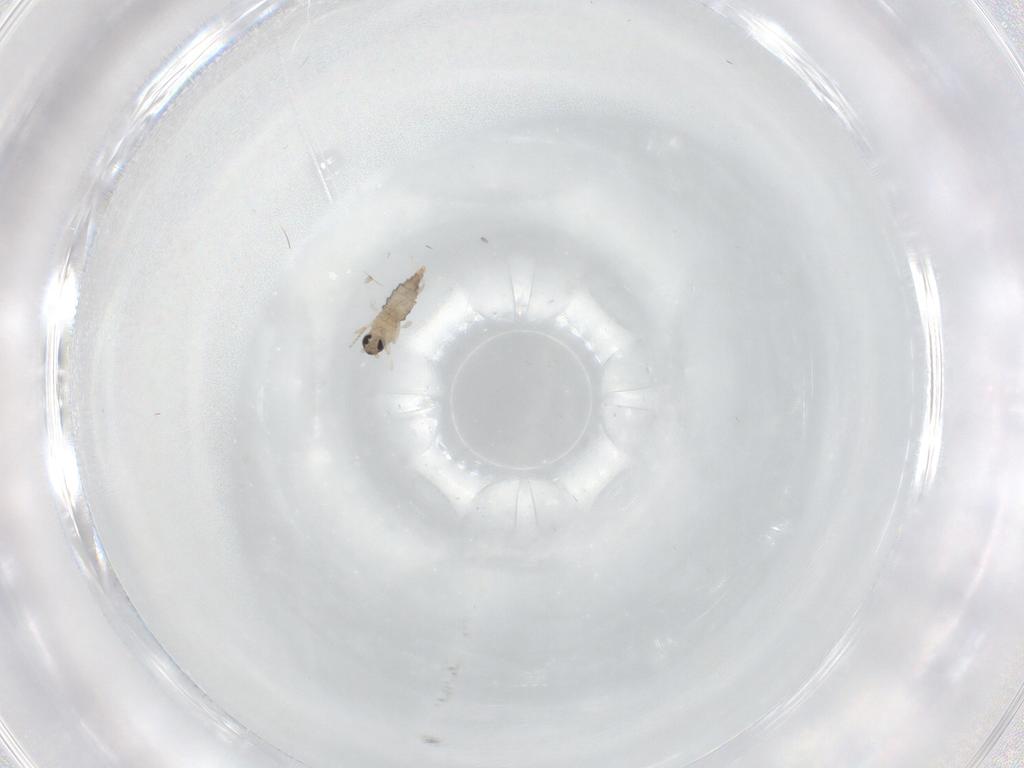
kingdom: Animalia
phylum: Arthropoda
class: Insecta
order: Diptera
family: Cecidomyiidae
